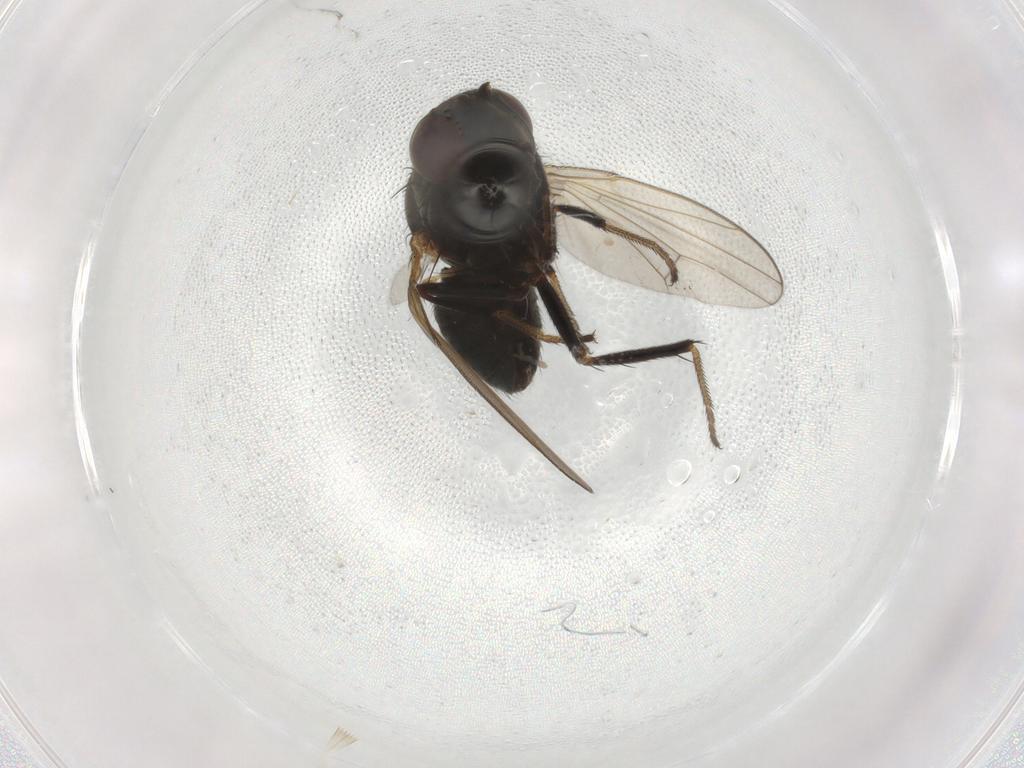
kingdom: Animalia
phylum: Arthropoda
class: Insecta
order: Diptera
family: Ephydridae
